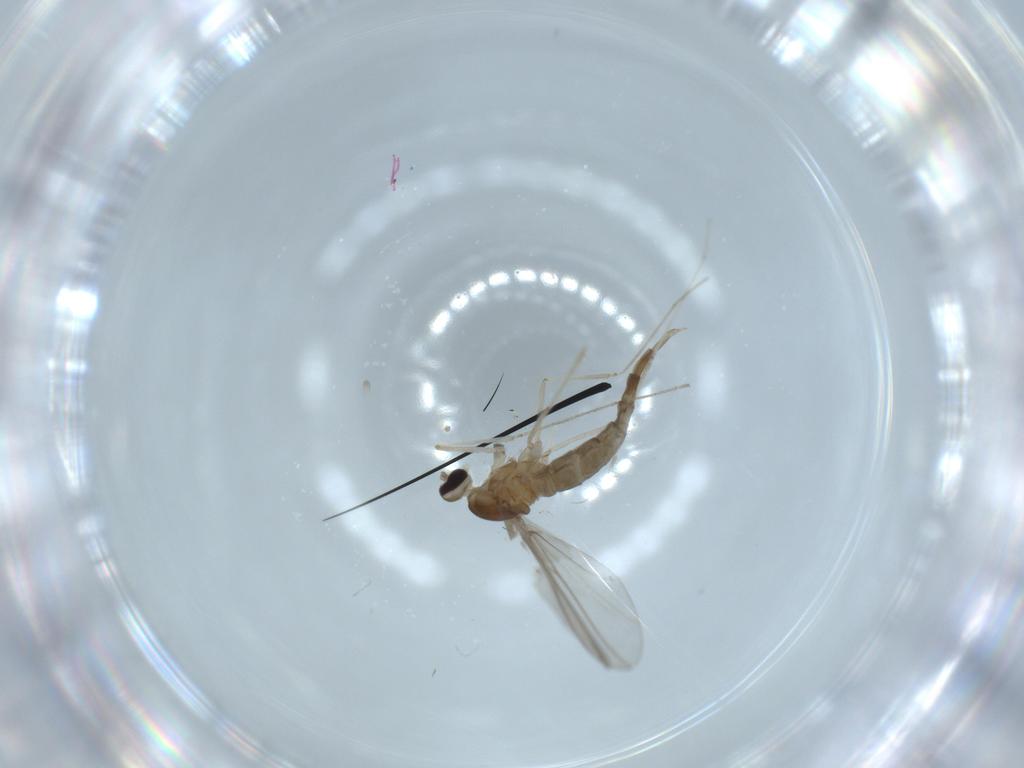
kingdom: Animalia
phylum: Arthropoda
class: Insecta
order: Diptera
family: Cecidomyiidae
